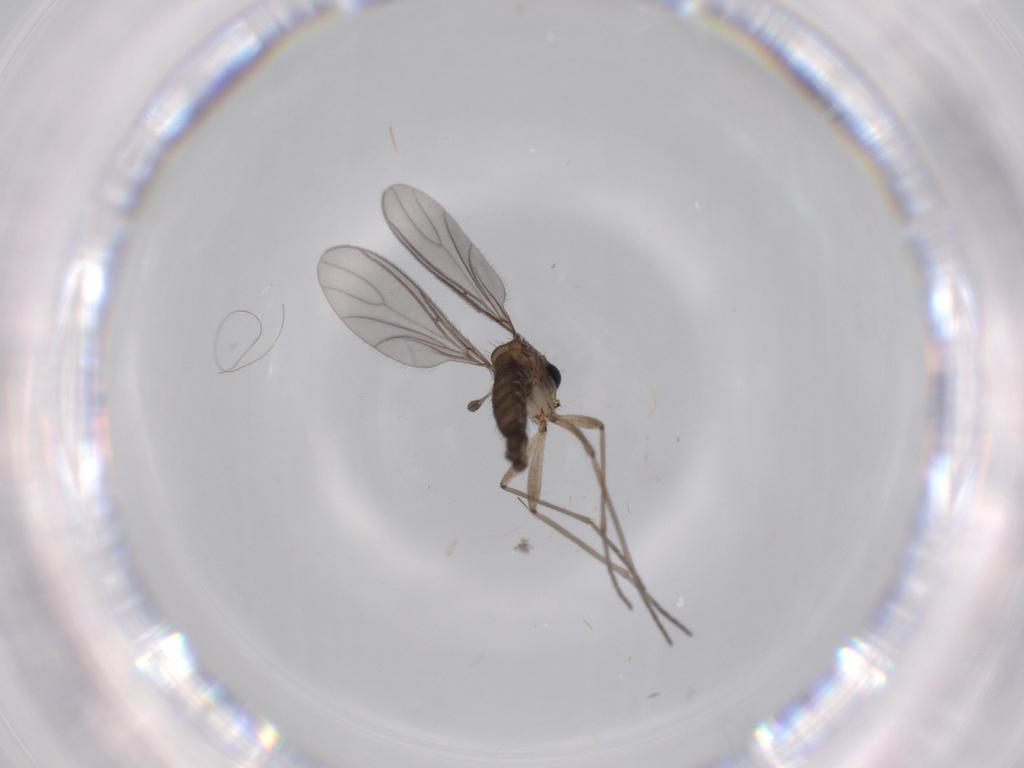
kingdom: Animalia
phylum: Arthropoda
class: Insecta
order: Diptera
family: Sciaridae
